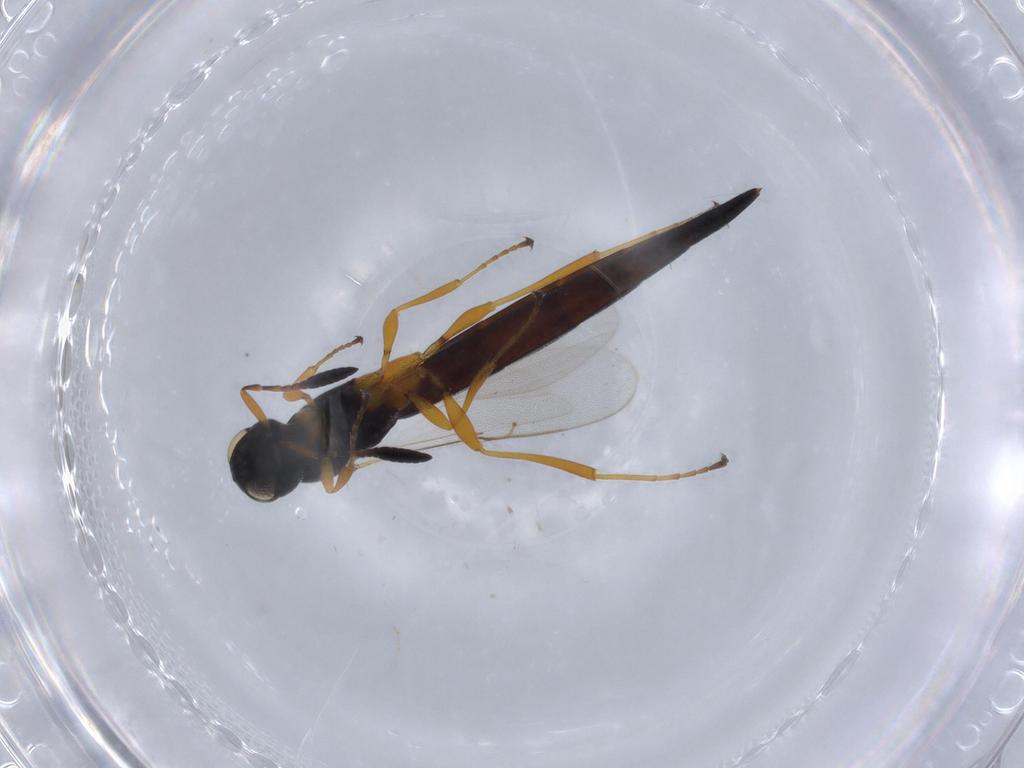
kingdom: Animalia
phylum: Arthropoda
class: Insecta
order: Hymenoptera
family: Scelionidae
